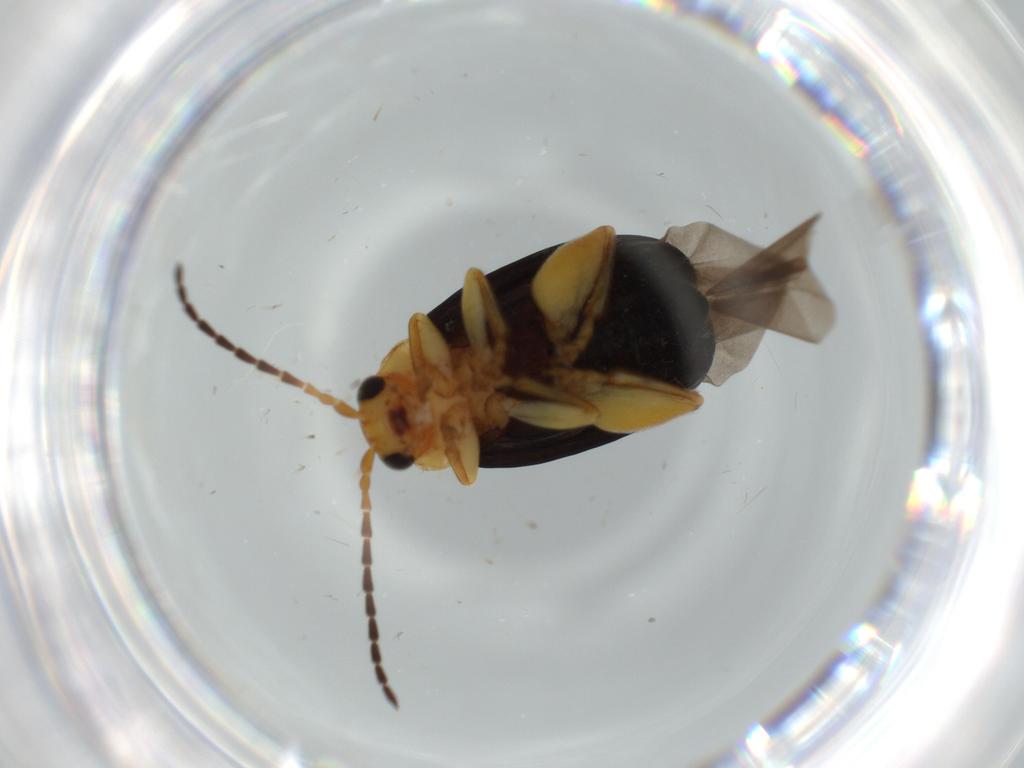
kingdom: Animalia
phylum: Arthropoda
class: Insecta
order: Coleoptera
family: Chrysomelidae
